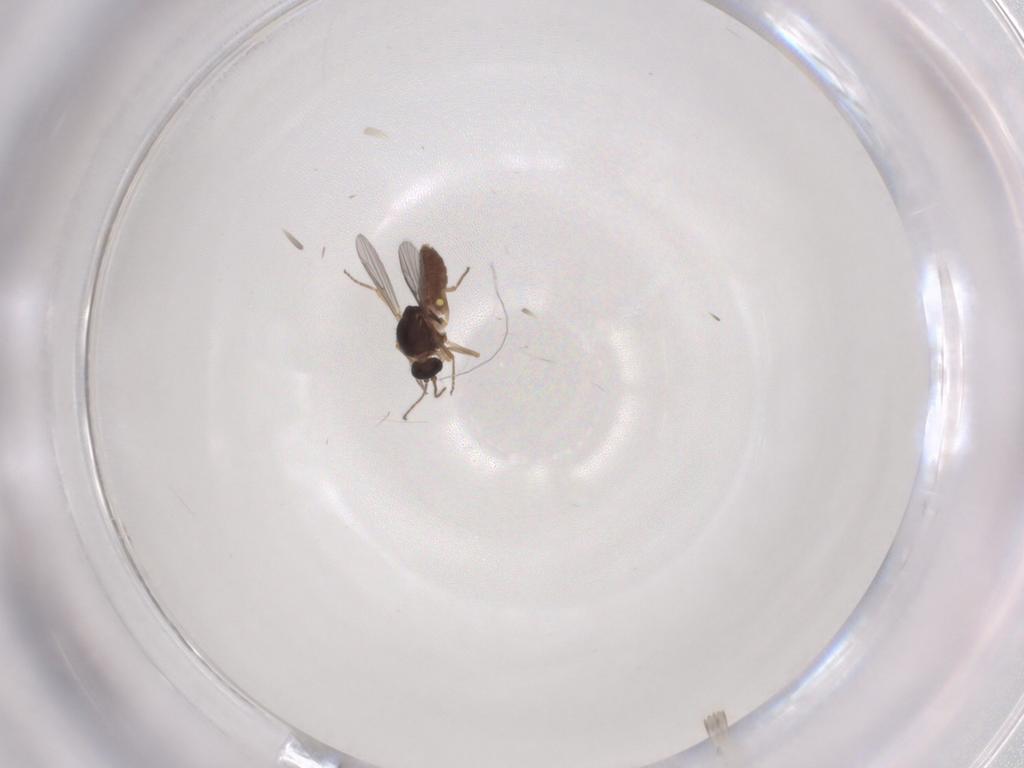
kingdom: Animalia
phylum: Arthropoda
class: Insecta
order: Diptera
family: Ceratopogonidae
